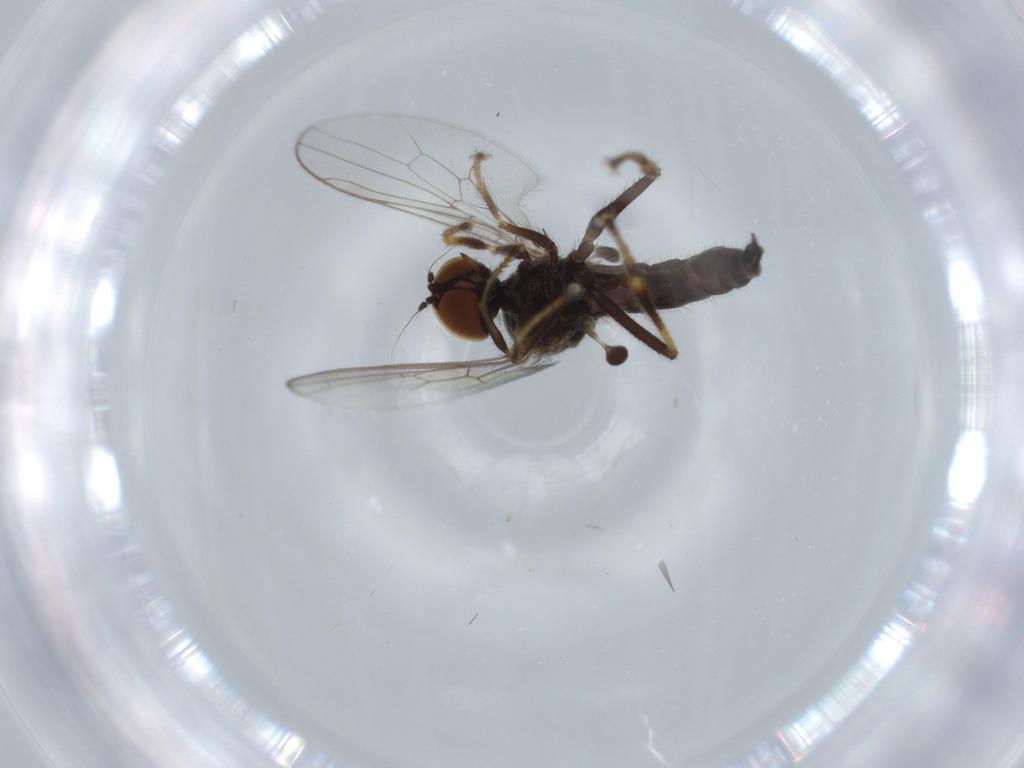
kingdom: Animalia
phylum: Arthropoda
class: Insecta
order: Diptera
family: Hybotidae
